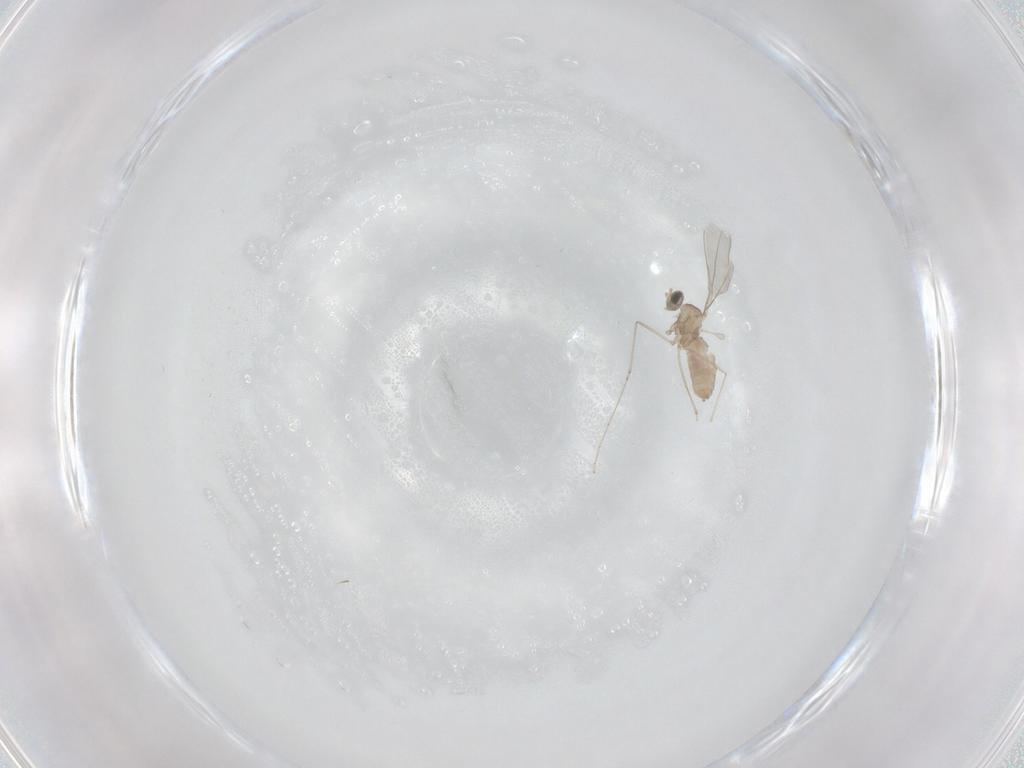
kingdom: Animalia
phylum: Arthropoda
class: Insecta
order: Diptera
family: Cecidomyiidae
